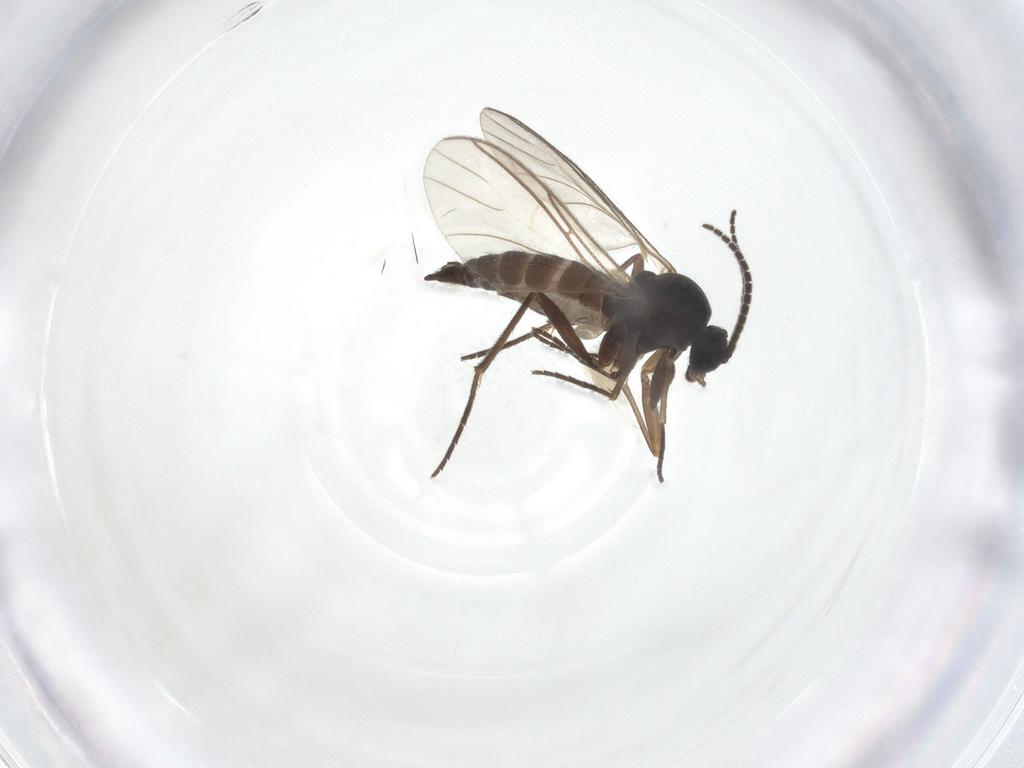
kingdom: Animalia
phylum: Arthropoda
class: Insecta
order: Diptera
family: Sciaridae
